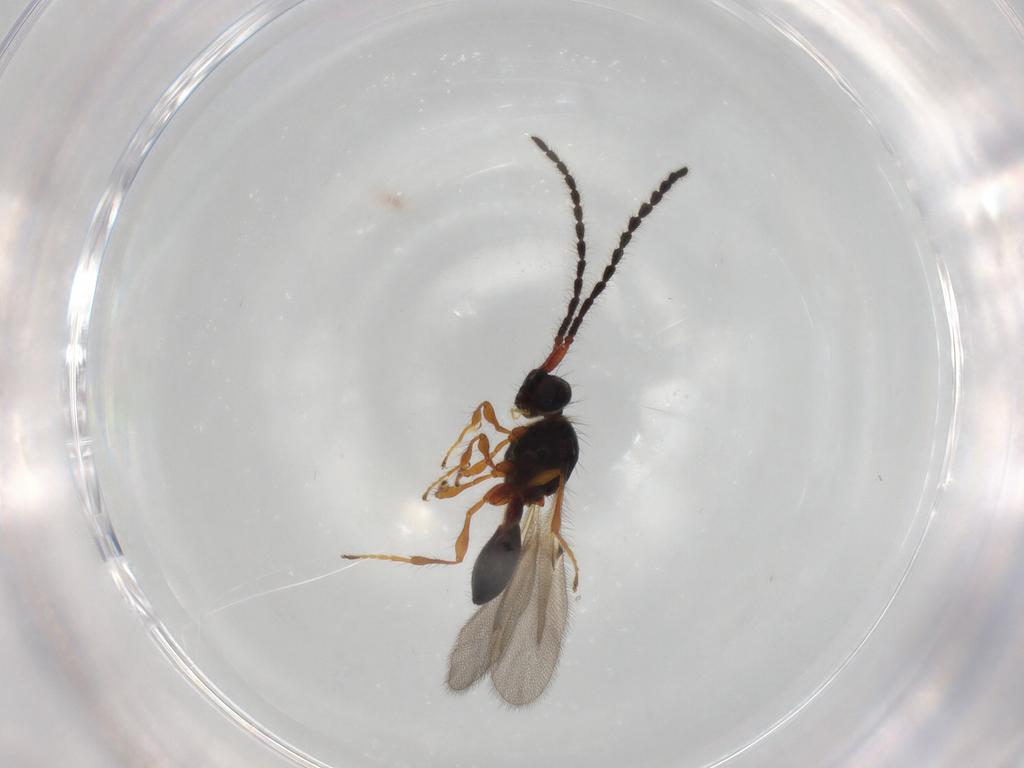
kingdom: Animalia
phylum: Arthropoda
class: Insecta
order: Hymenoptera
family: Diapriidae
